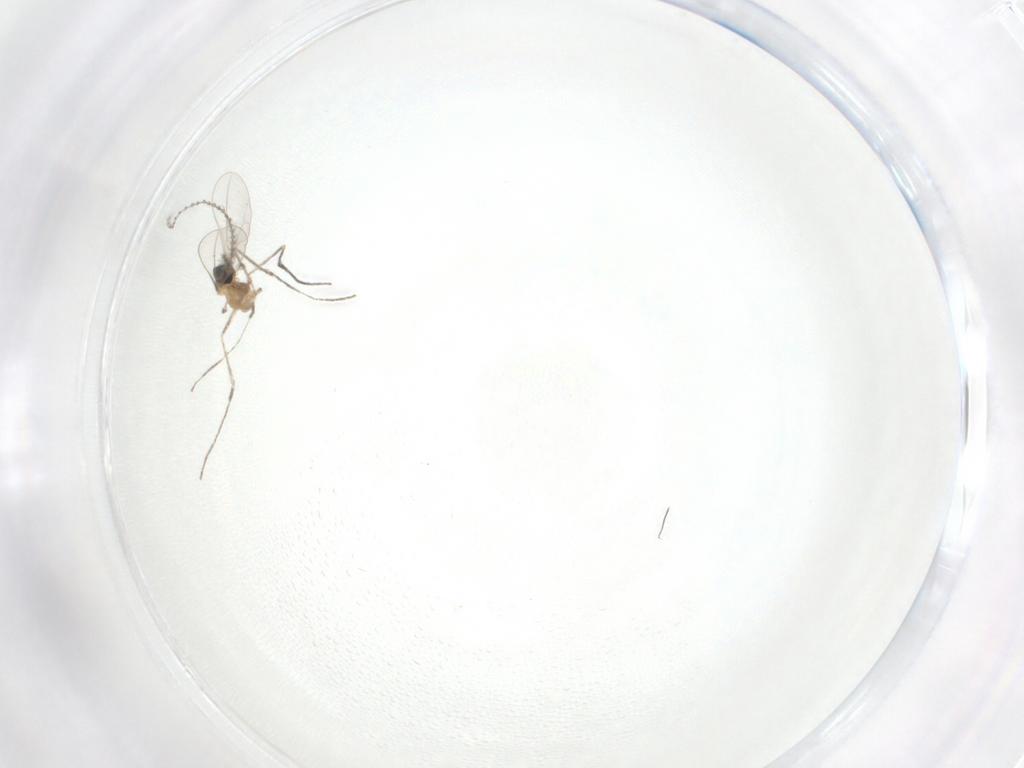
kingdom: Animalia
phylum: Arthropoda
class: Insecta
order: Diptera
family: Cecidomyiidae
